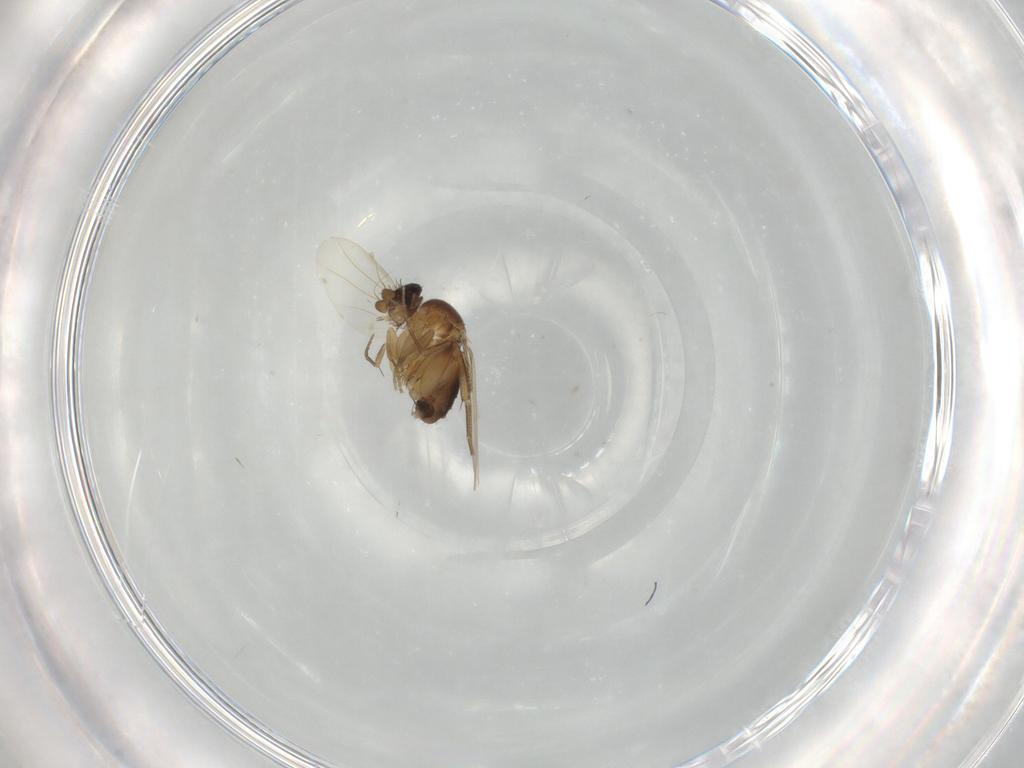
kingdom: Animalia
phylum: Arthropoda
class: Insecta
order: Diptera
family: Phoridae
